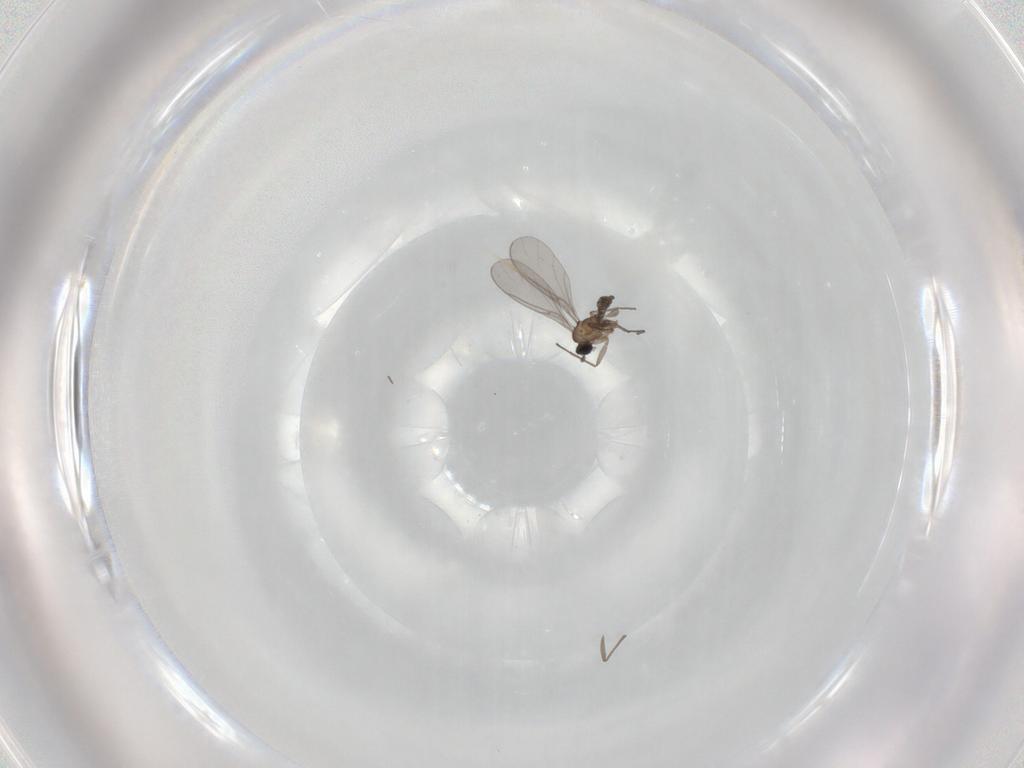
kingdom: Animalia
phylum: Arthropoda
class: Insecta
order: Diptera
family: Sciaridae
